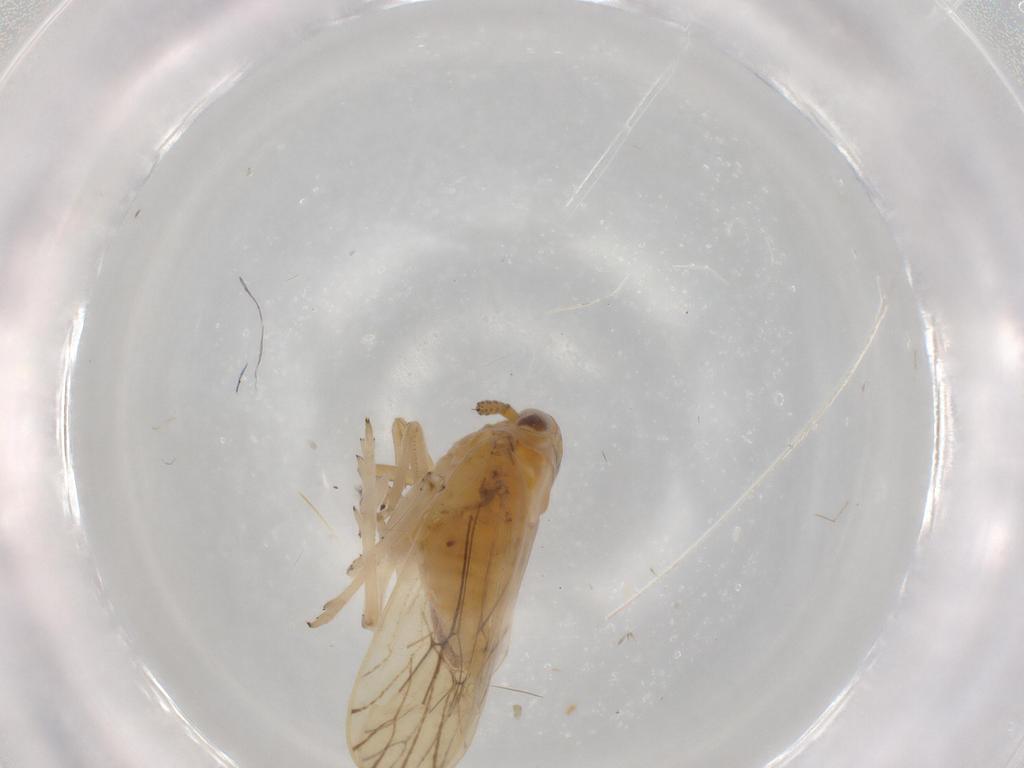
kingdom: Animalia
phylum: Arthropoda
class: Insecta
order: Hemiptera
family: Delphacidae
